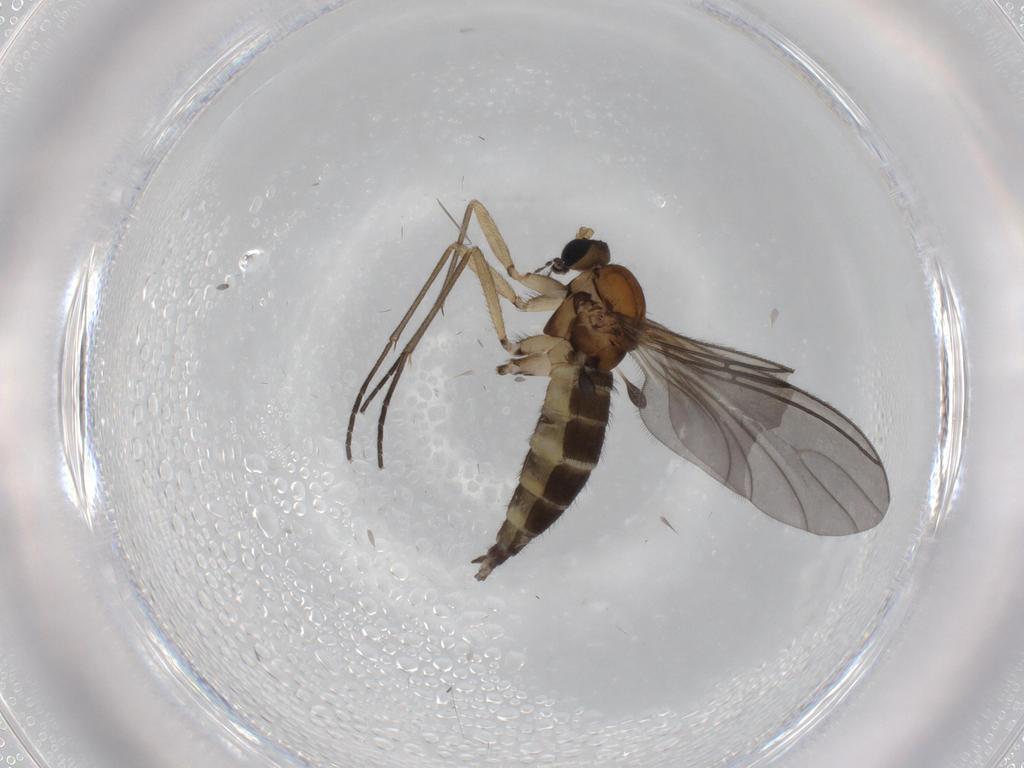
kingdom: Animalia
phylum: Arthropoda
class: Insecta
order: Diptera
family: Sciaridae
